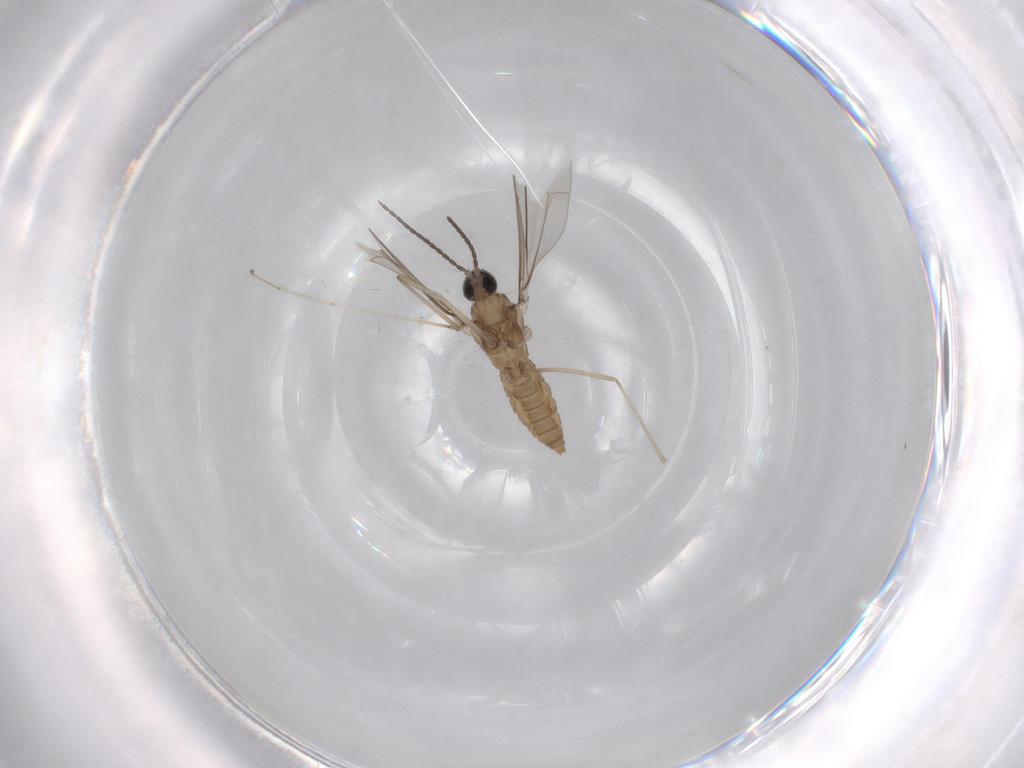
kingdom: Animalia
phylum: Arthropoda
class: Insecta
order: Diptera
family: Cecidomyiidae
